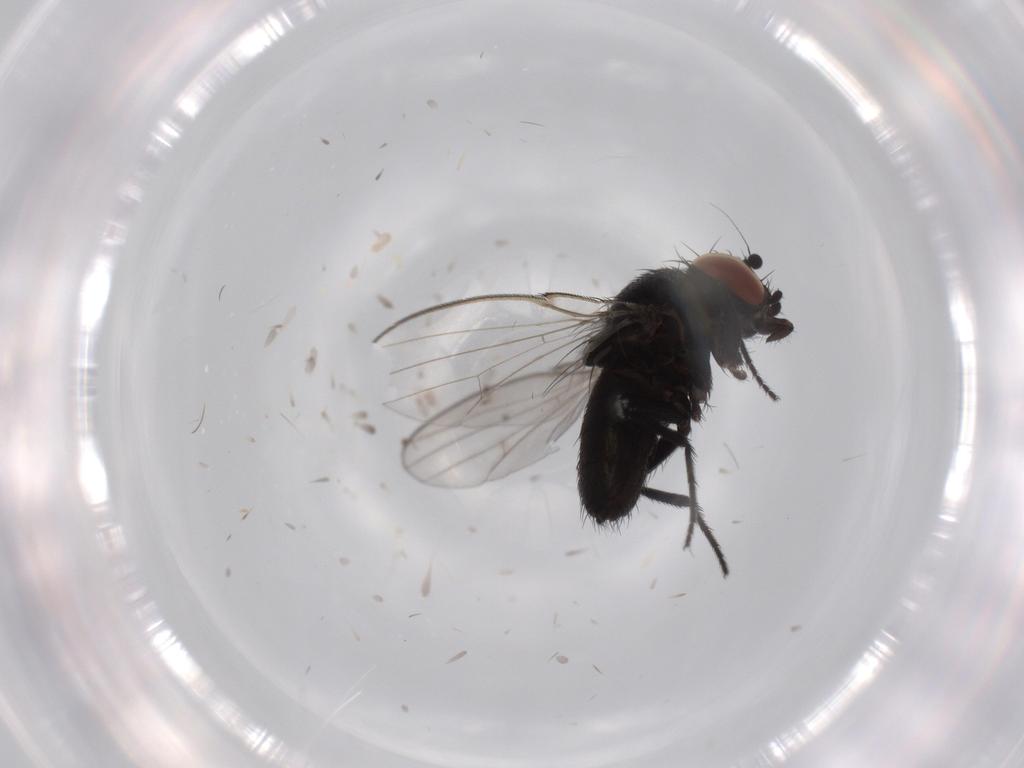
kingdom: Animalia
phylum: Arthropoda
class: Insecta
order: Diptera
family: Milichiidae
